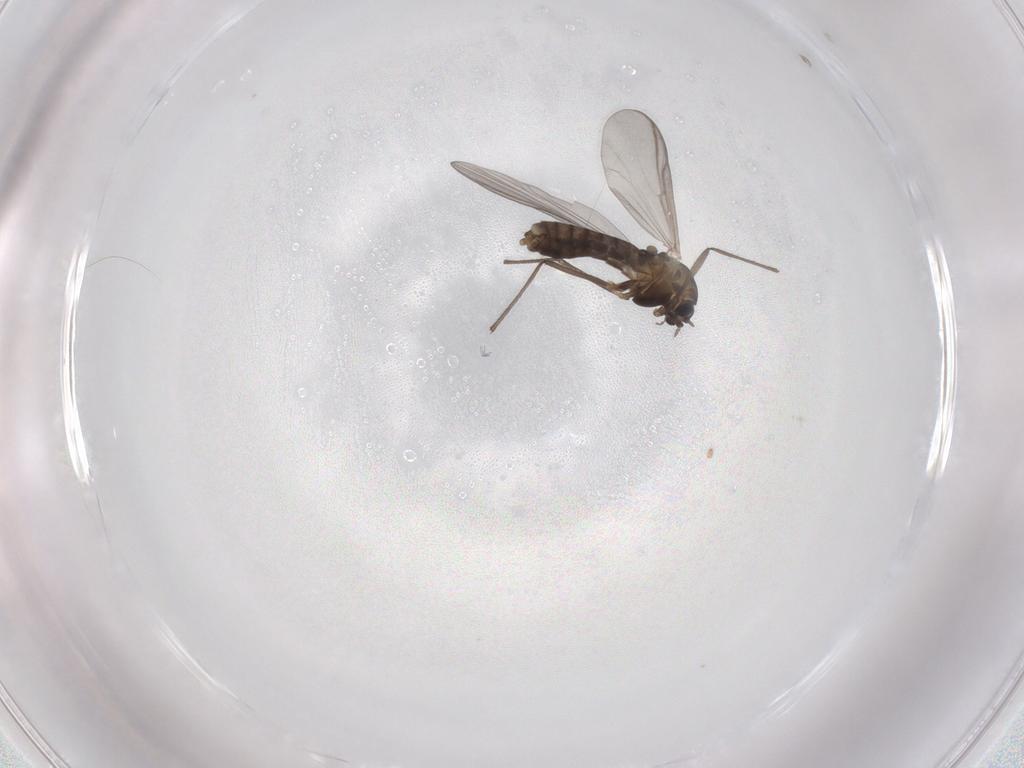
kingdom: Animalia
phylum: Arthropoda
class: Insecta
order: Diptera
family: Chironomidae
